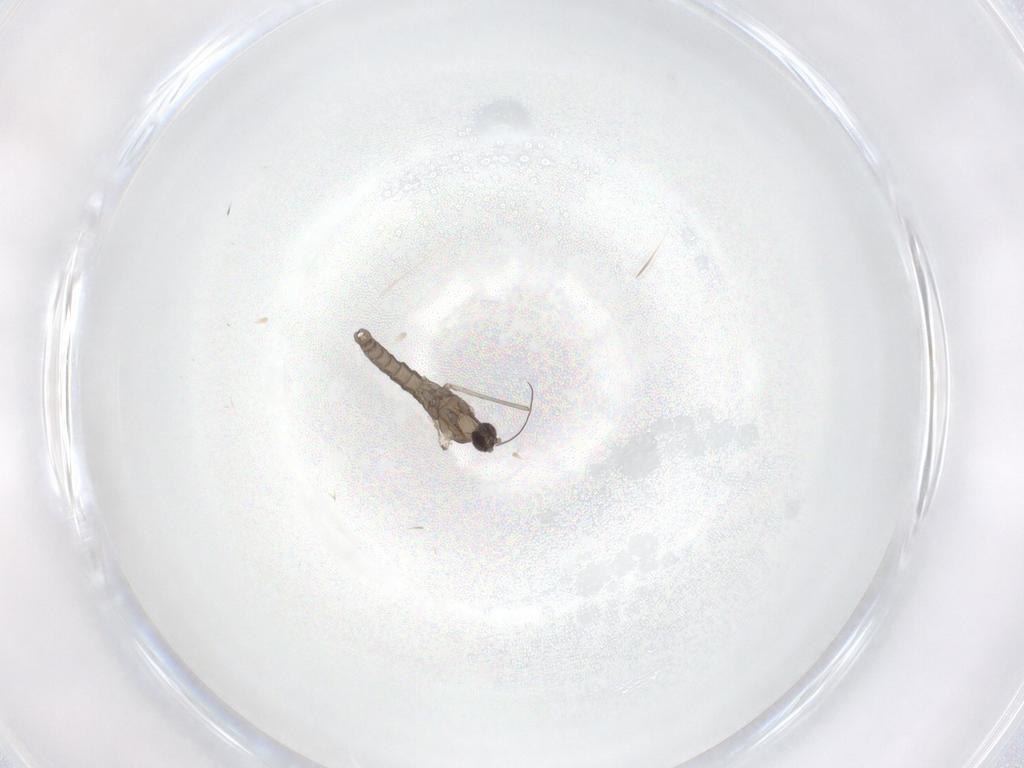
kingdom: Animalia
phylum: Arthropoda
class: Insecta
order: Diptera
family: Cecidomyiidae
